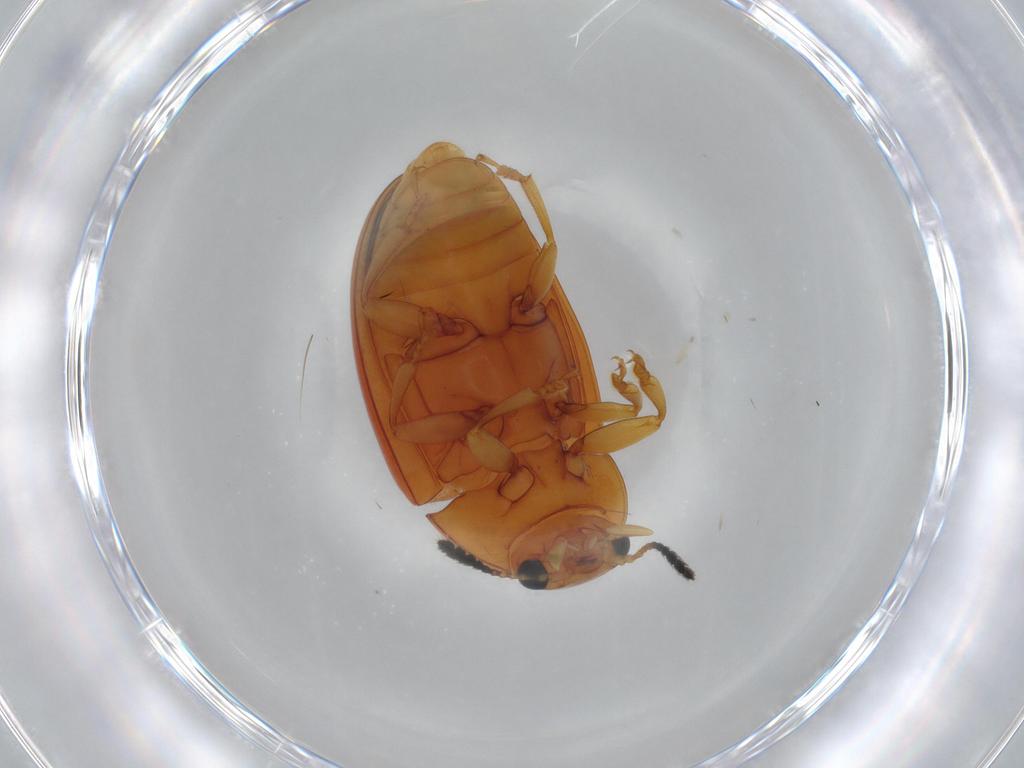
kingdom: Animalia
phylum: Arthropoda
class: Insecta
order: Coleoptera
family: Erotylidae
